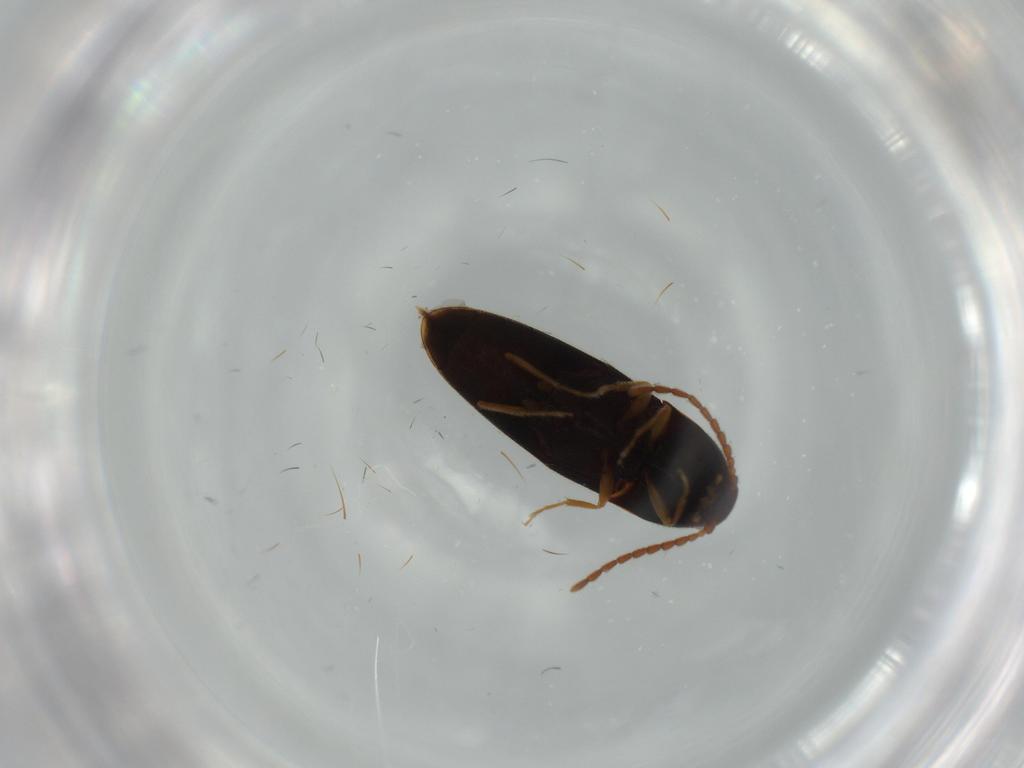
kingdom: Animalia
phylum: Arthropoda
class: Insecta
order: Coleoptera
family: Elateridae
